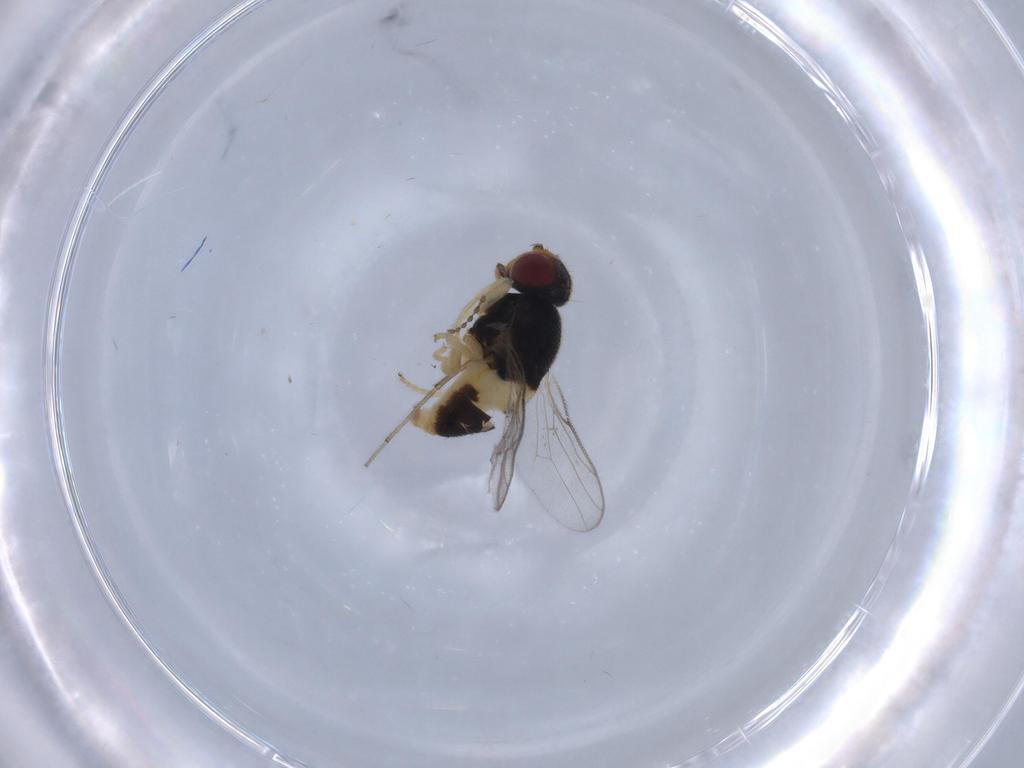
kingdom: Animalia
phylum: Arthropoda
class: Insecta
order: Diptera
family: Chloropidae
